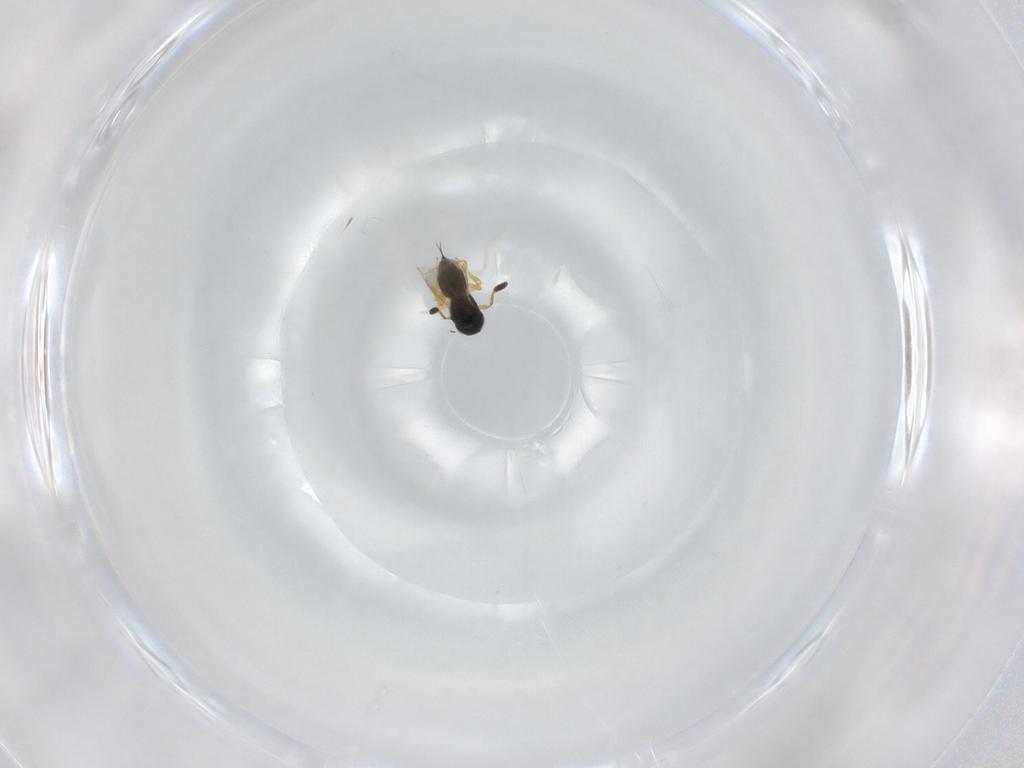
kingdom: Animalia
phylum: Arthropoda
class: Insecta
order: Hymenoptera
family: Scelionidae
